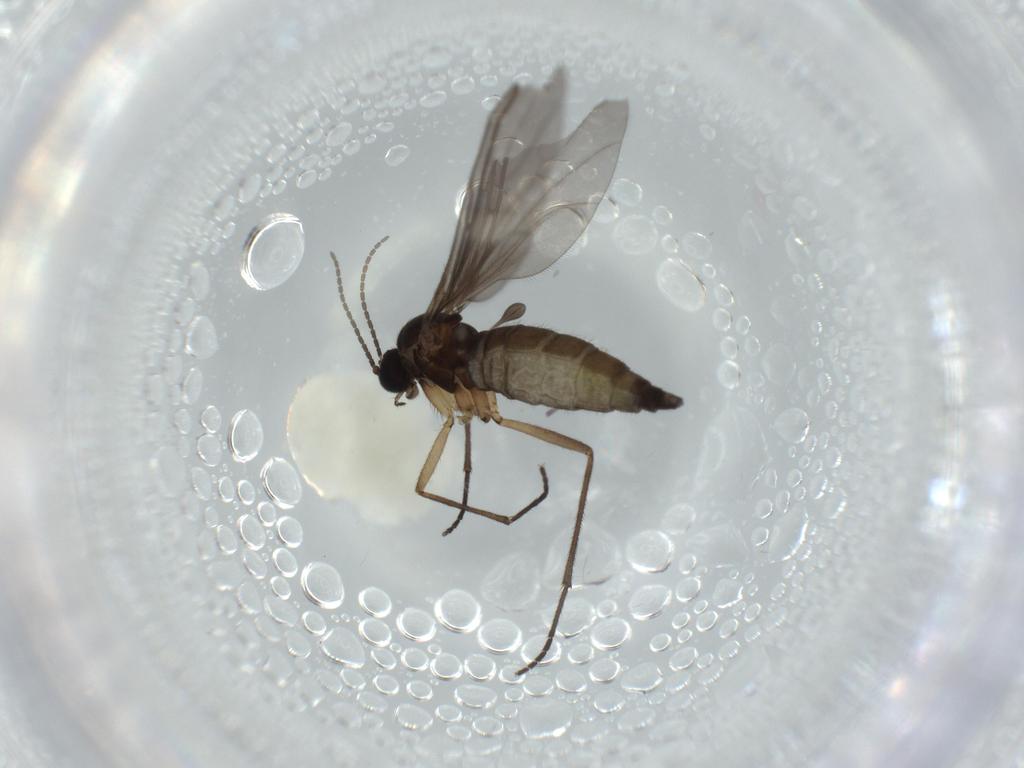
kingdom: Animalia
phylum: Arthropoda
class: Insecta
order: Diptera
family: Sciaridae
